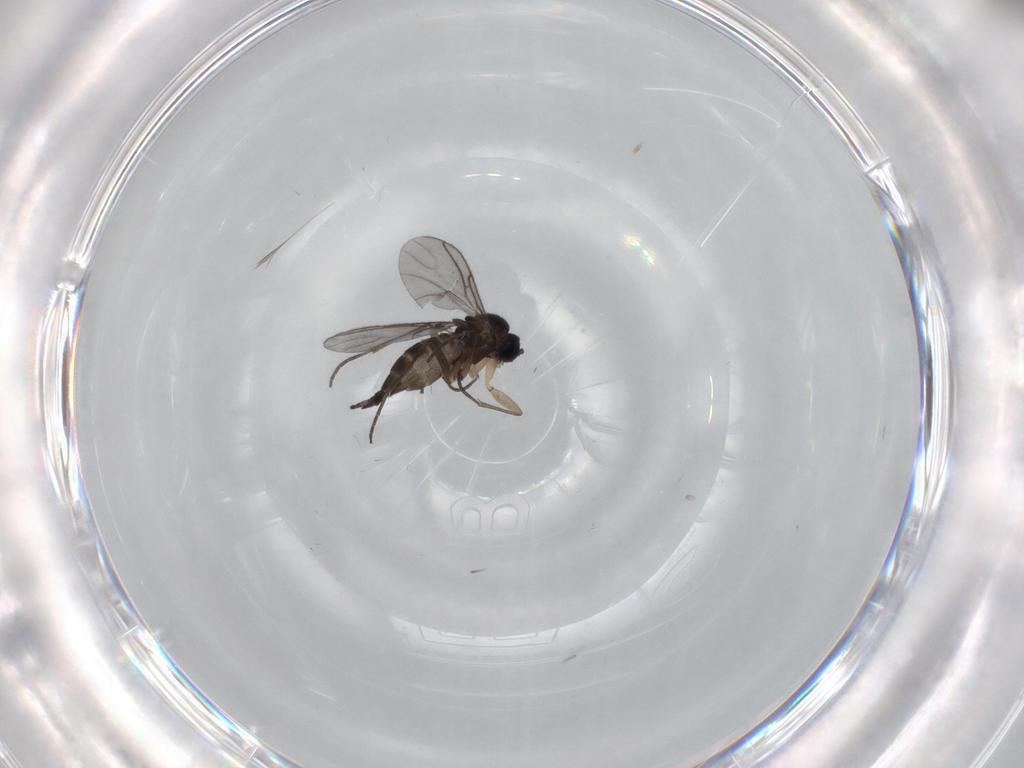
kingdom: Animalia
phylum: Arthropoda
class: Insecta
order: Diptera
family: Sciaridae
